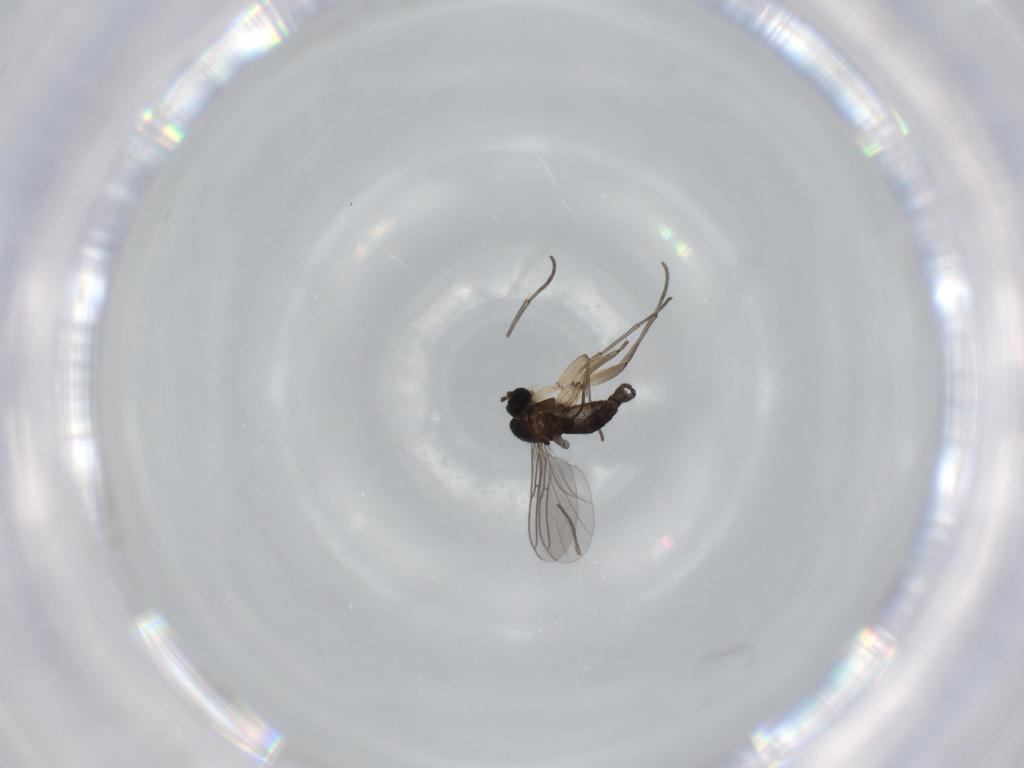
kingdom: Animalia
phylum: Arthropoda
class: Insecta
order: Diptera
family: Sciaridae
